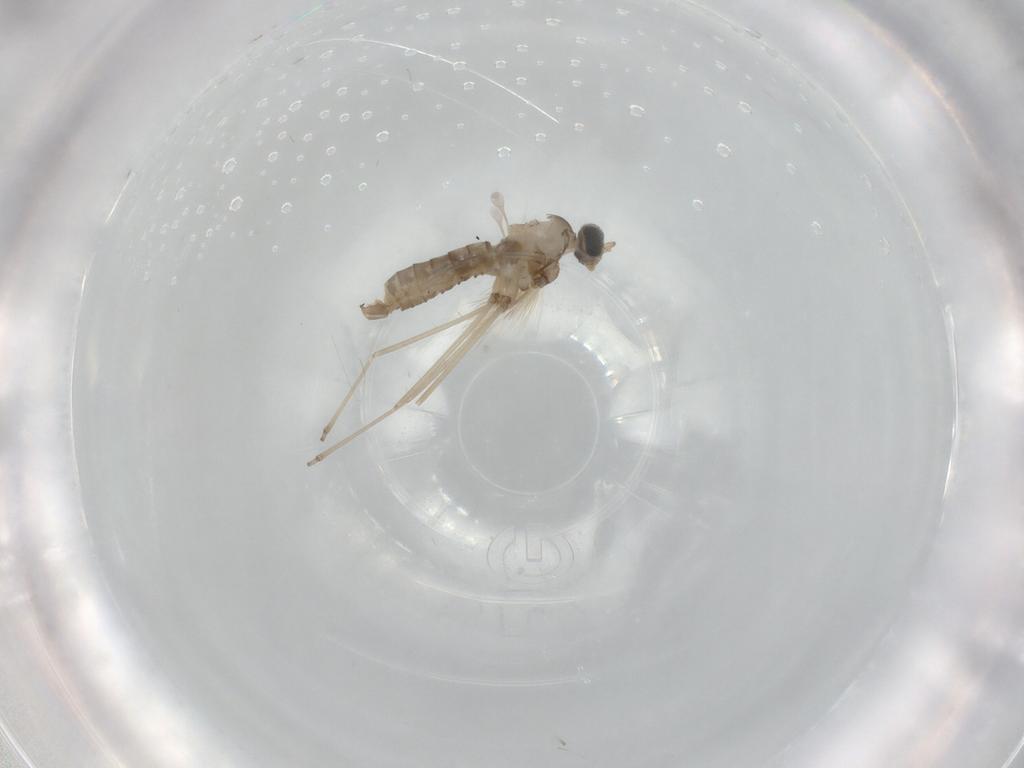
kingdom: Animalia
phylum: Arthropoda
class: Insecta
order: Diptera
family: Cecidomyiidae
